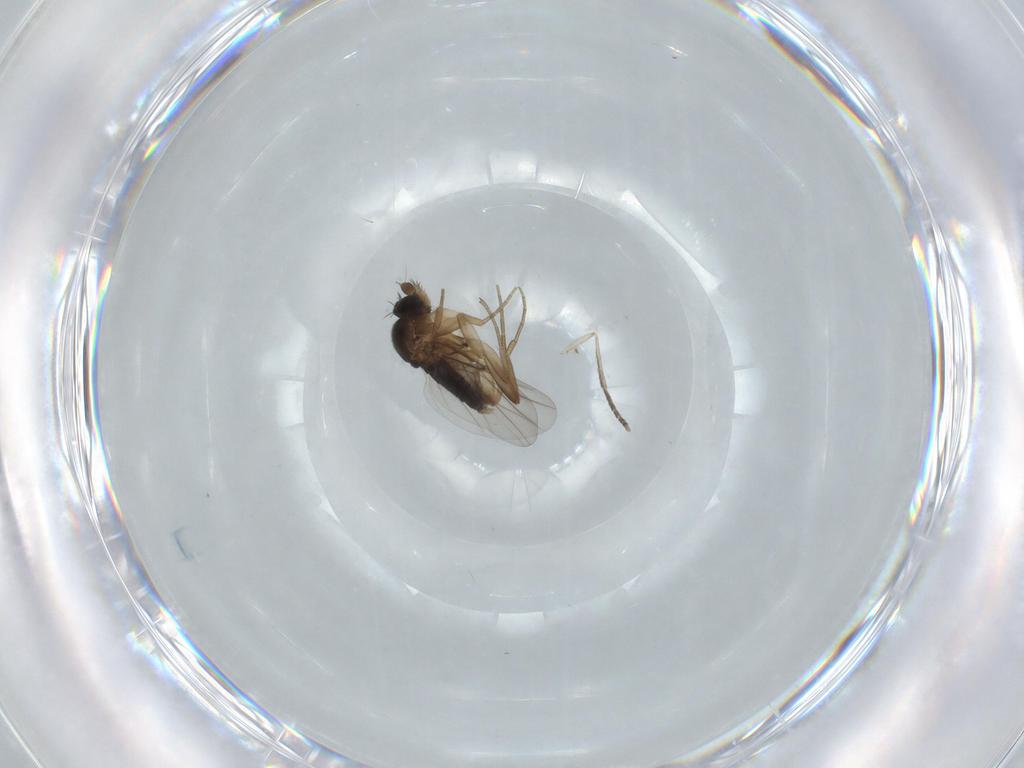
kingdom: Animalia
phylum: Arthropoda
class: Insecta
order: Diptera
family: Phoridae
